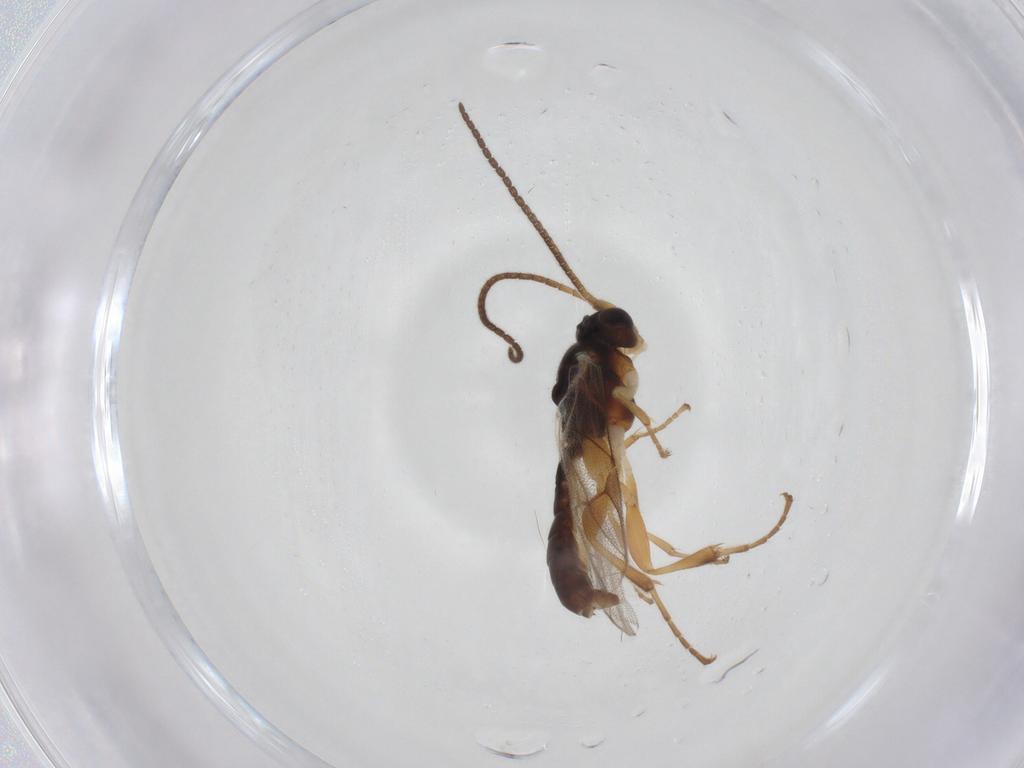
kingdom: Animalia
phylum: Arthropoda
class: Insecta
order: Hymenoptera
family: Ichneumonidae
